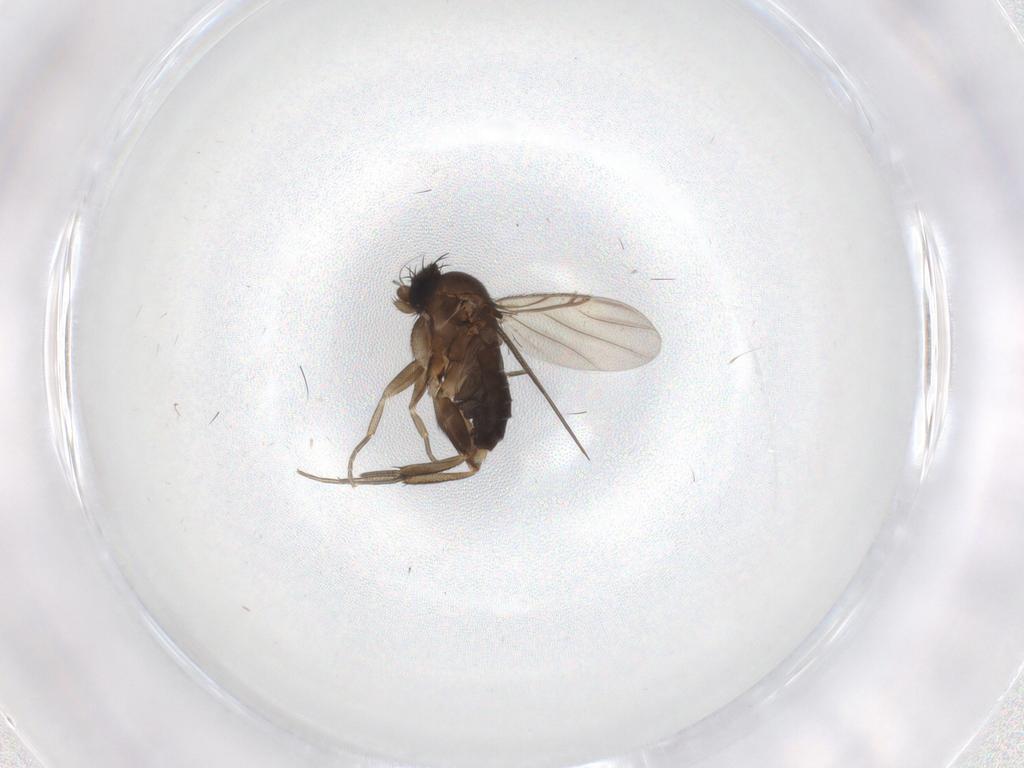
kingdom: Animalia
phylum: Arthropoda
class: Insecta
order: Diptera
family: Phoridae
